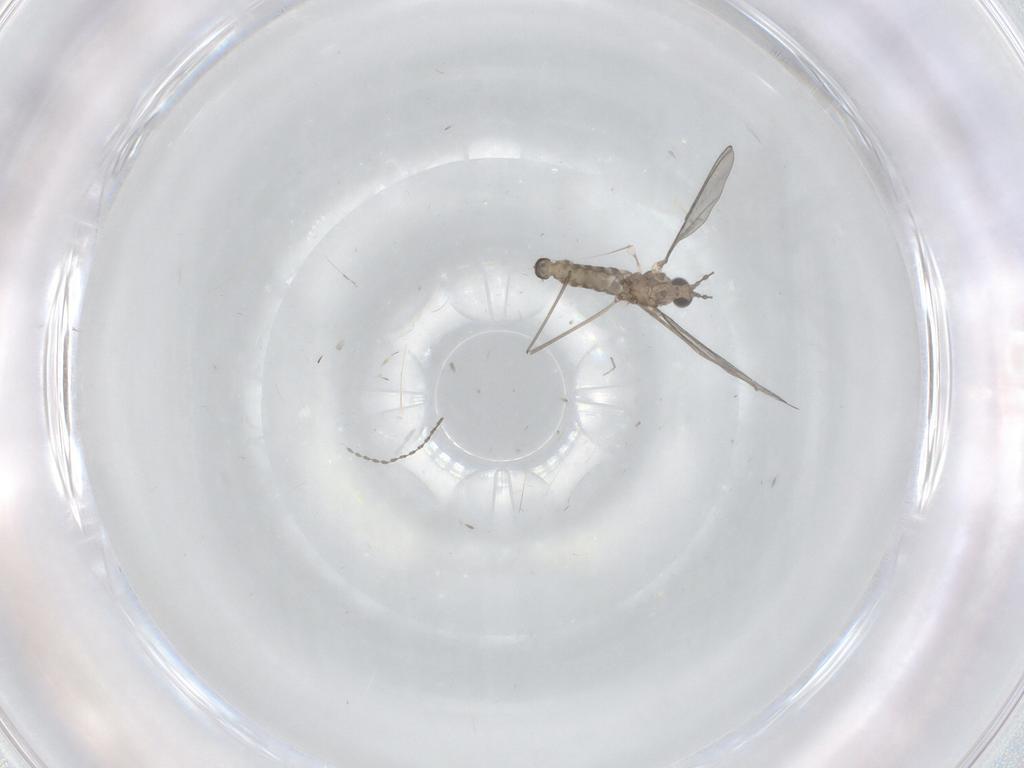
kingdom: Animalia
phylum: Arthropoda
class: Insecta
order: Diptera
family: Cecidomyiidae
